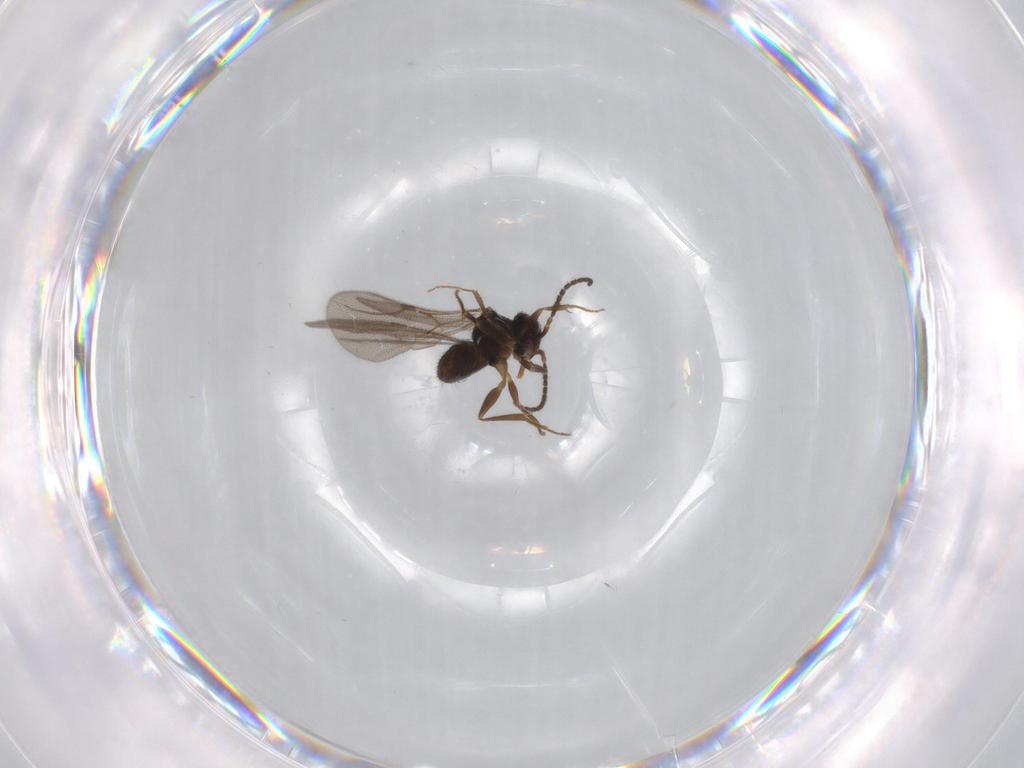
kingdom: Animalia
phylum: Arthropoda
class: Insecta
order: Hymenoptera
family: Bethylidae
